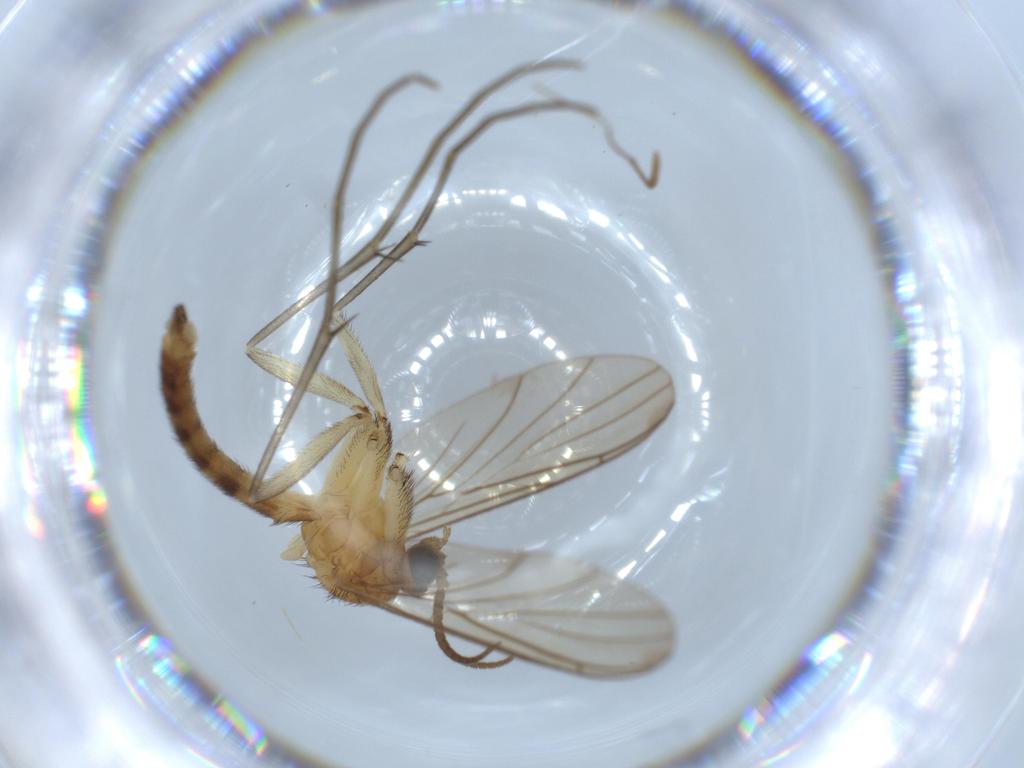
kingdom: Animalia
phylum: Arthropoda
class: Insecta
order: Diptera
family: Keroplatidae
